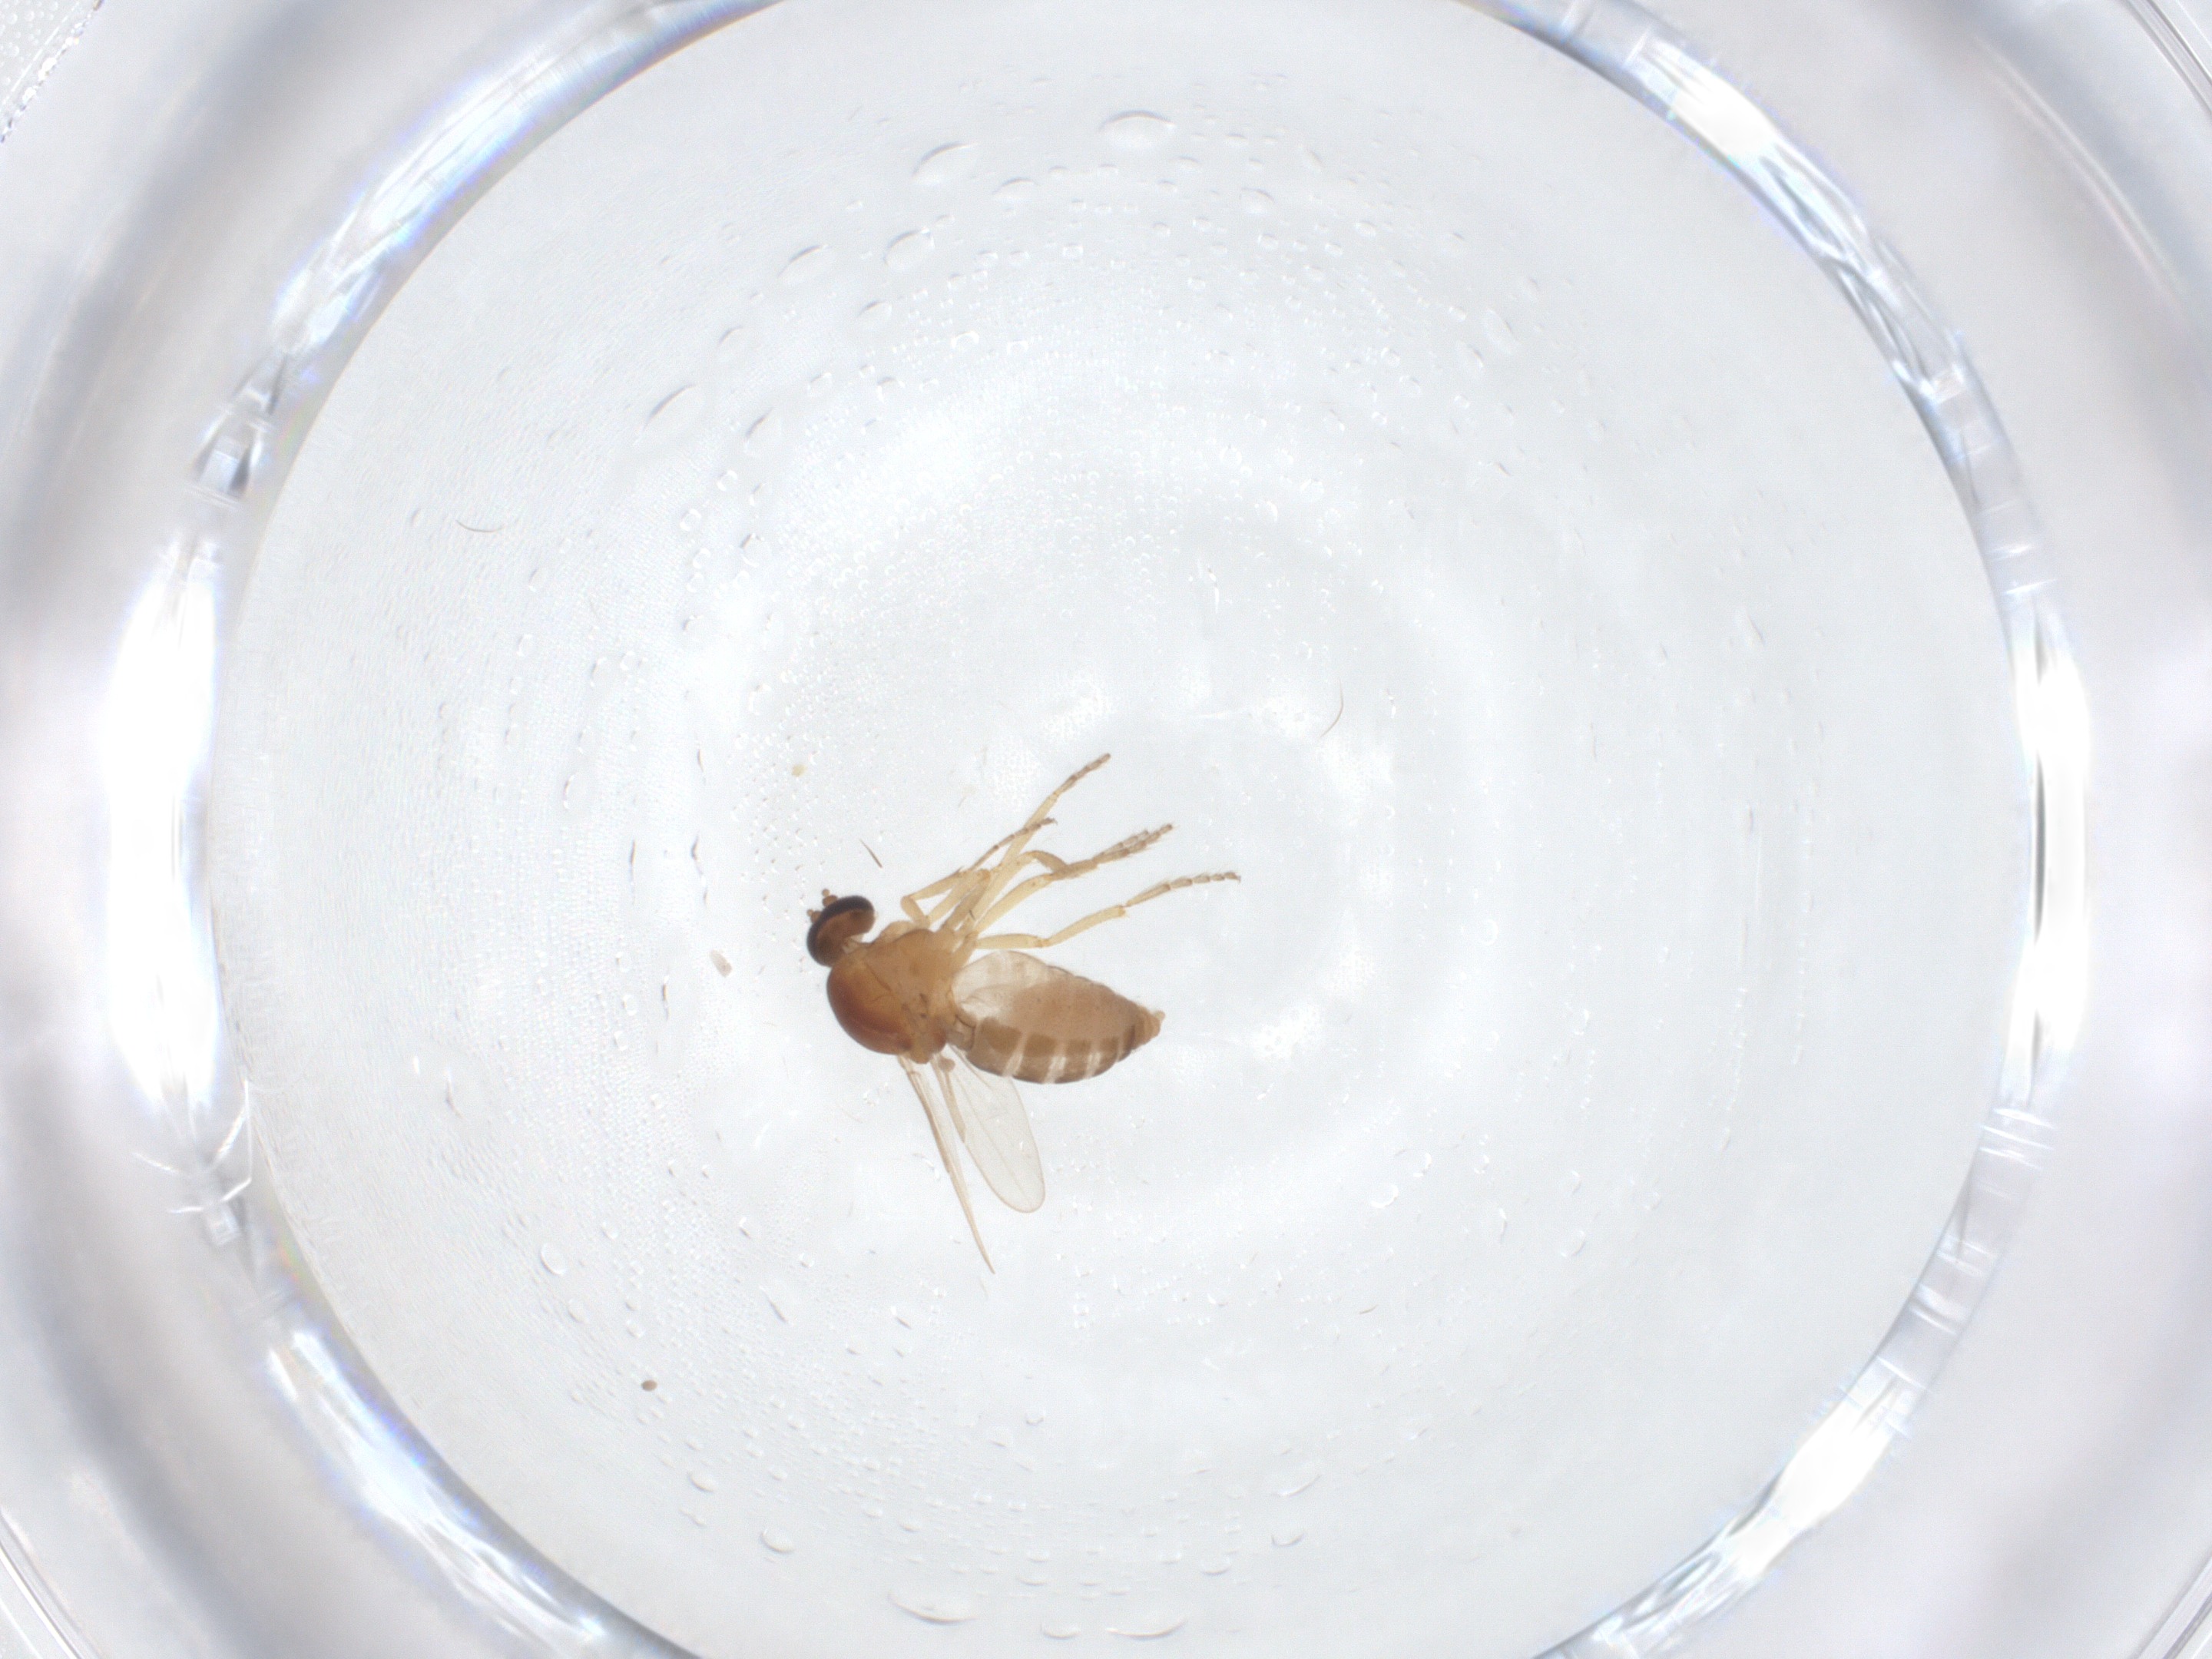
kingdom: Animalia
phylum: Arthropoda
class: Insecta
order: Diptera
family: Ceratopogonidae
